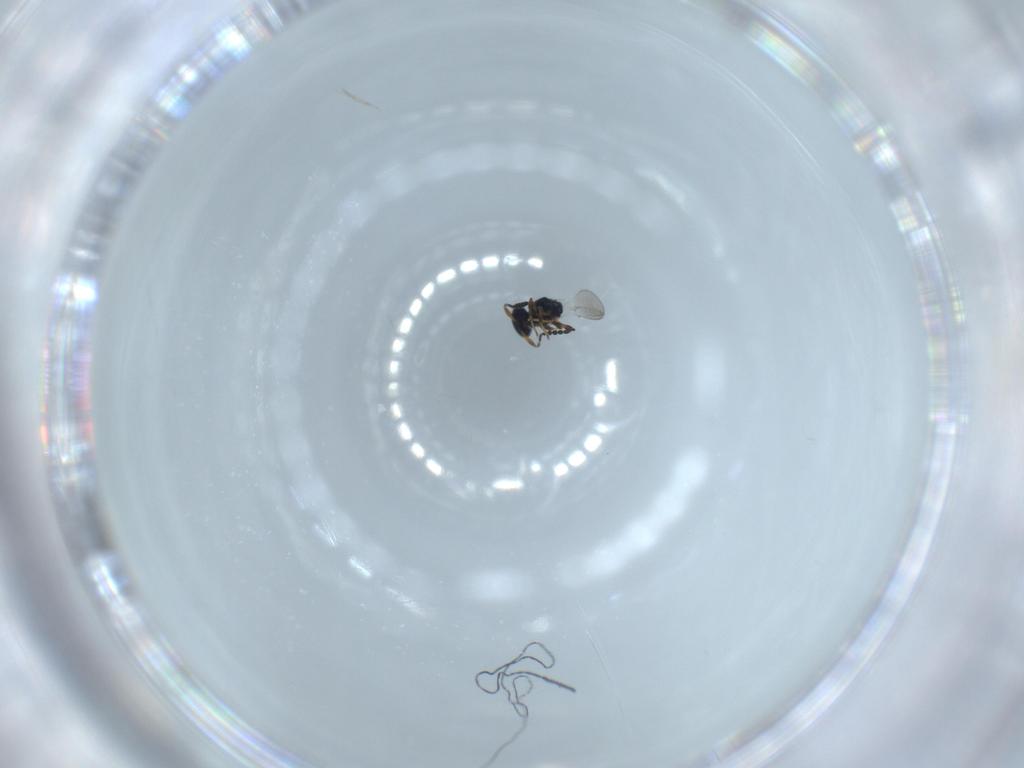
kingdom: Animalia
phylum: Arthropoda
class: Insecta
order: Hymenoptera
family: Platygastridae
